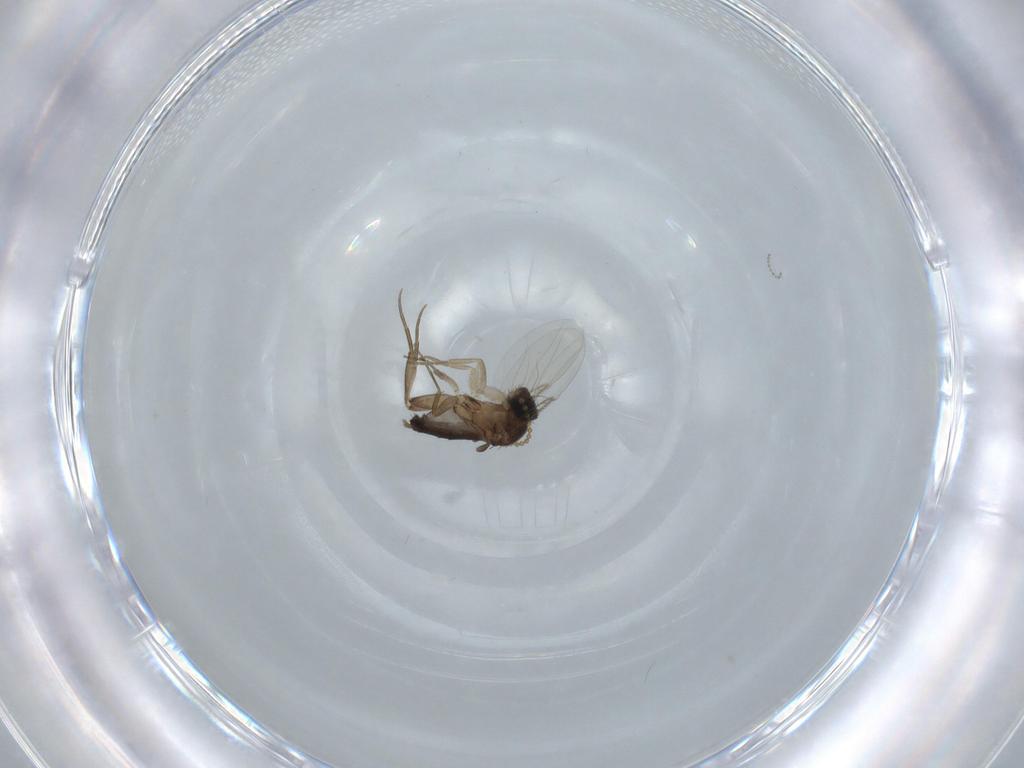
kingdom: Animalia
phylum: Arthropoda
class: Insecta
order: Diptera
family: Phoridae
